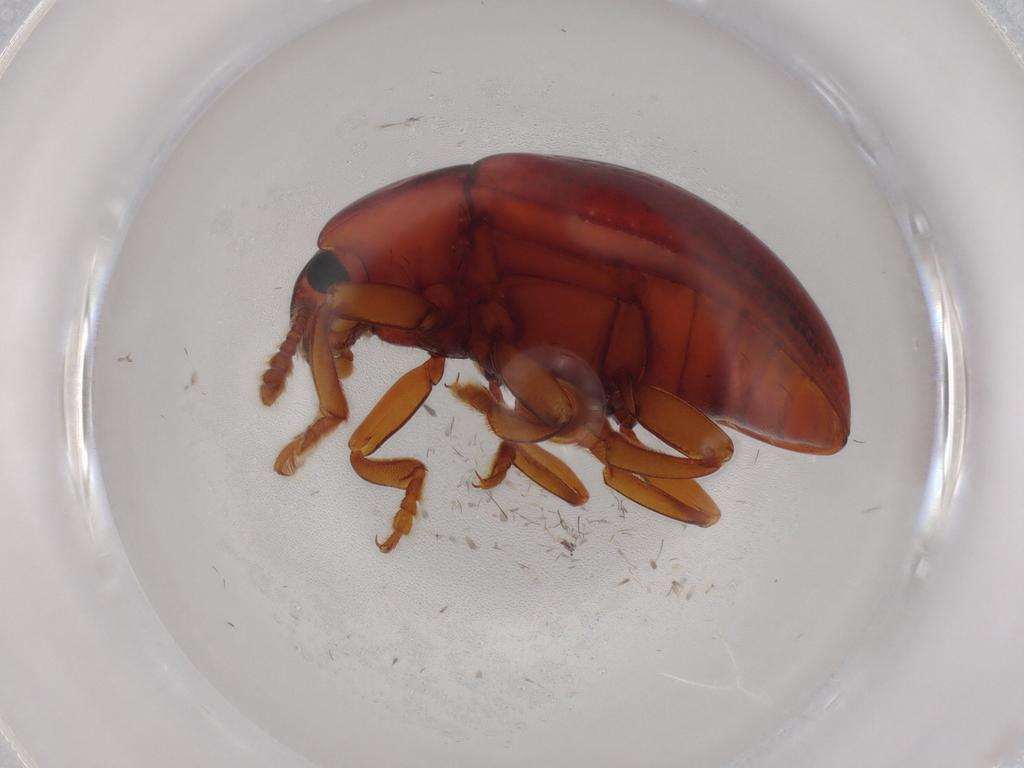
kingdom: Animalia
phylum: Arthropoda
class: Insecta
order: Coleoptera
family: Erotylidae
